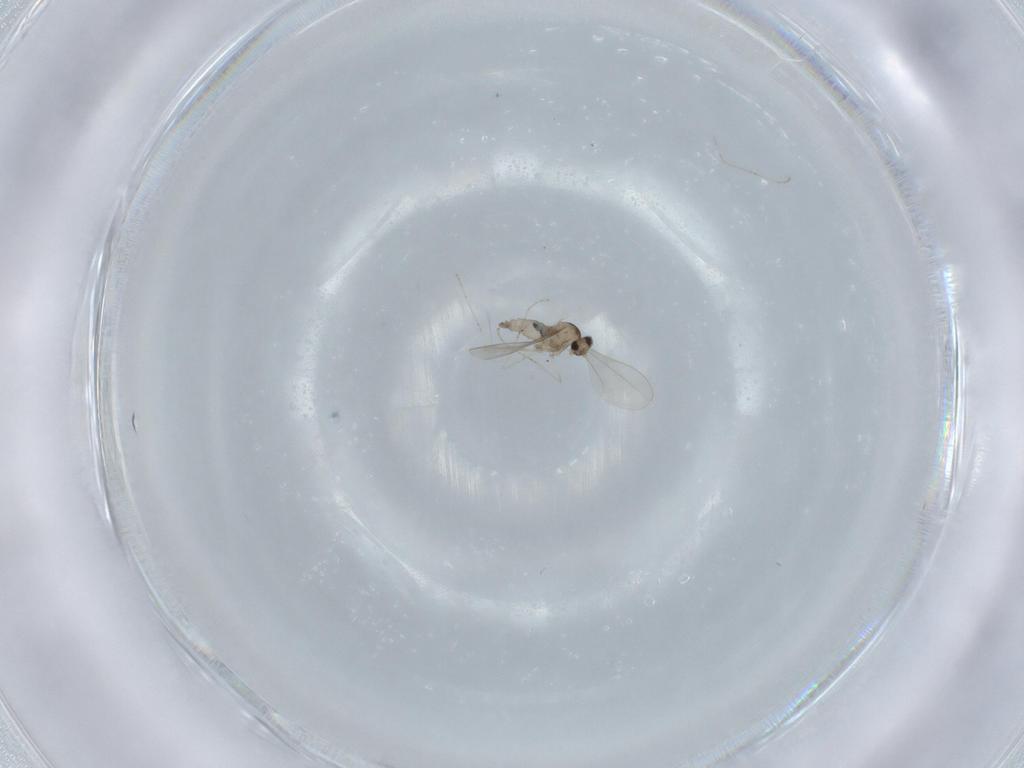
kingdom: Animalia
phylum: Arthropoda
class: Insecta
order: Diptera
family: Cecidomyiidae
